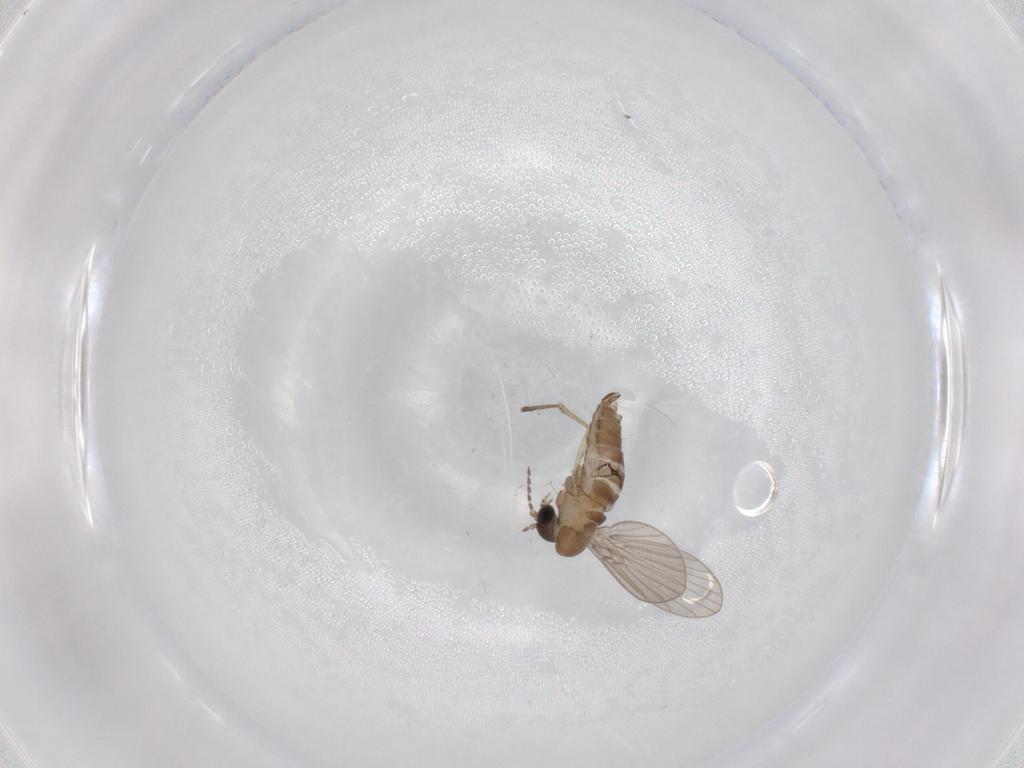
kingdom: Animalia
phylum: Arthropoda
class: Insecta
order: Diptera
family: Psychodidae
